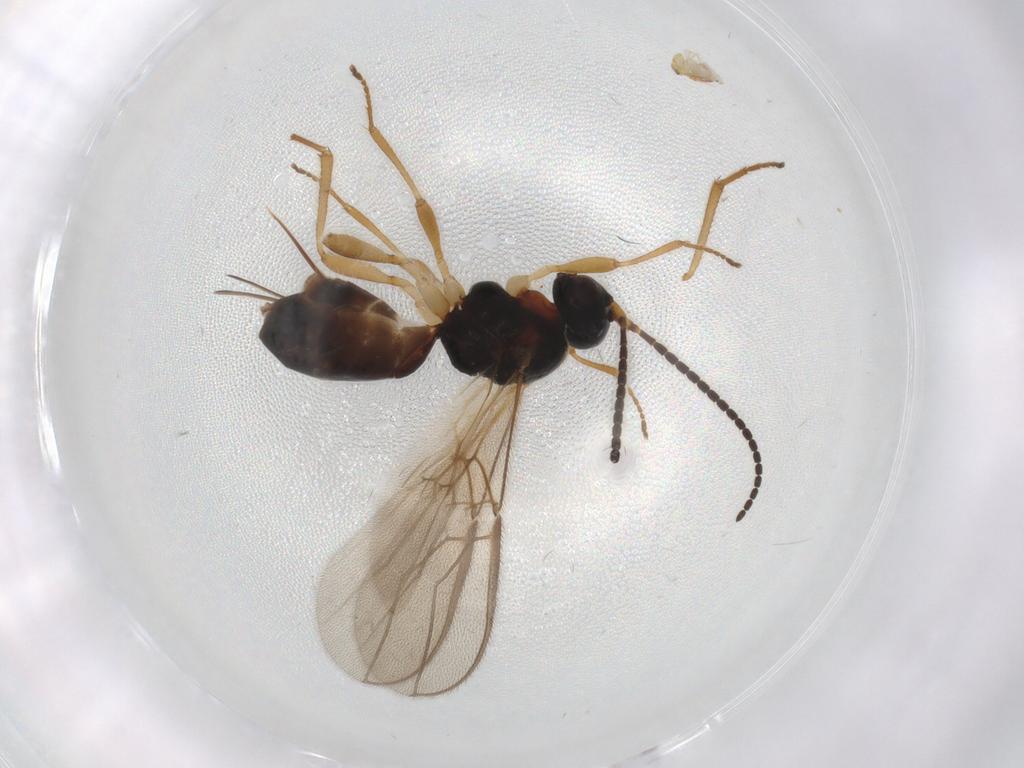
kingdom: Animalia
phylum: Arthropoda
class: Insecta
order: Hymenoptera
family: Braconidae
